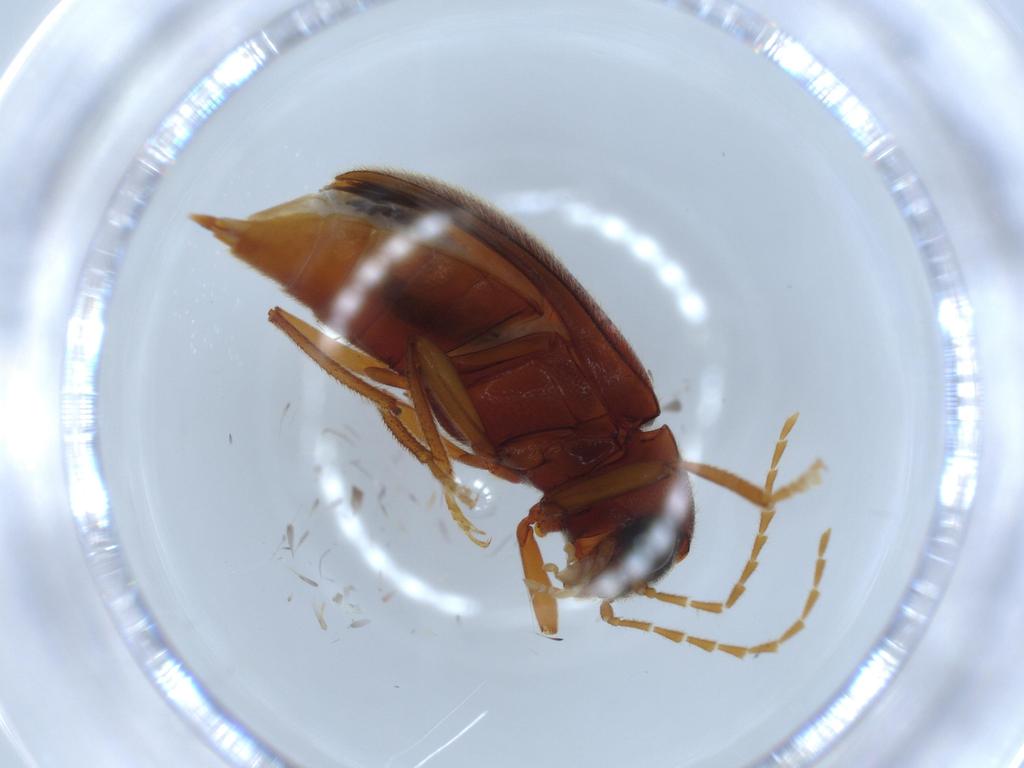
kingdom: Animalia
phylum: Arthropoda
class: Insecta
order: Coleoptera
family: Ptilodactylidae
